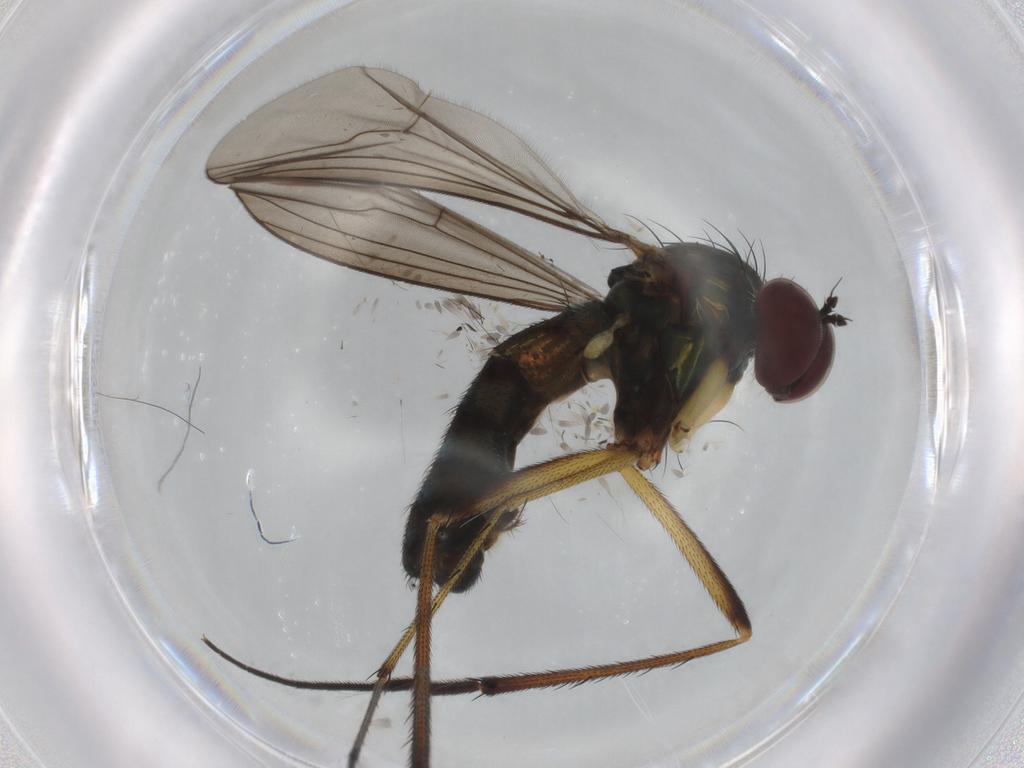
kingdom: Animalia
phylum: Arthropoda
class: Insecta
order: Diptera
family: Dolichopodidae
